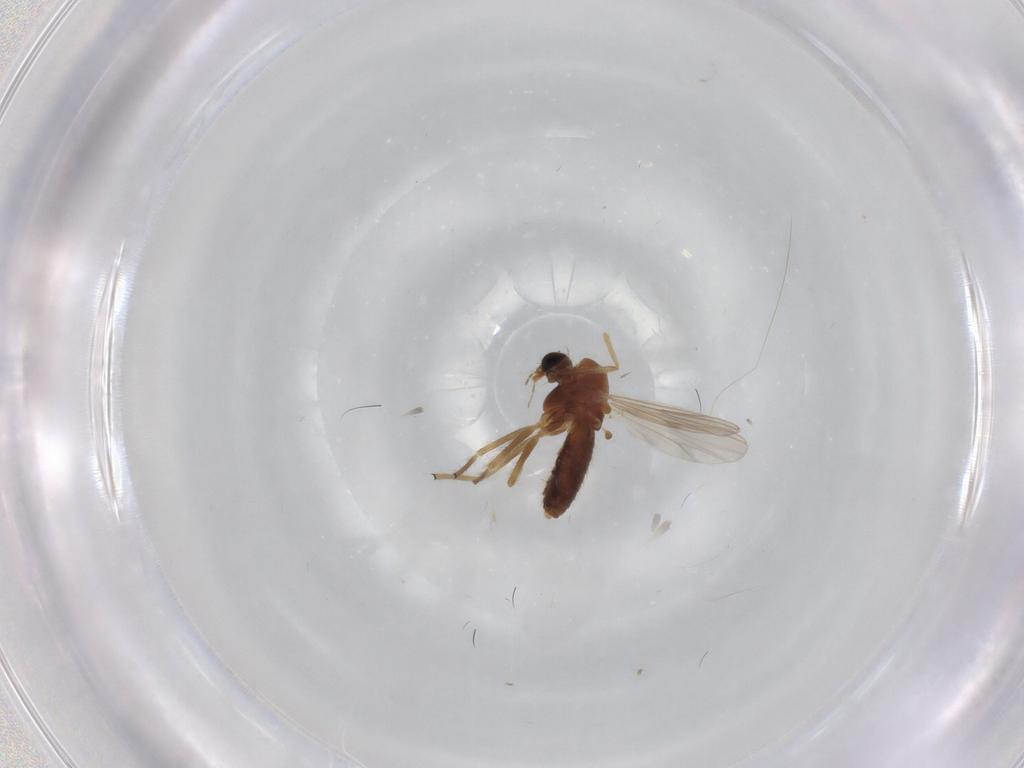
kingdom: Animalia
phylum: Arthropoda
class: Insecta
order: Diptera
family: Chironomidae
